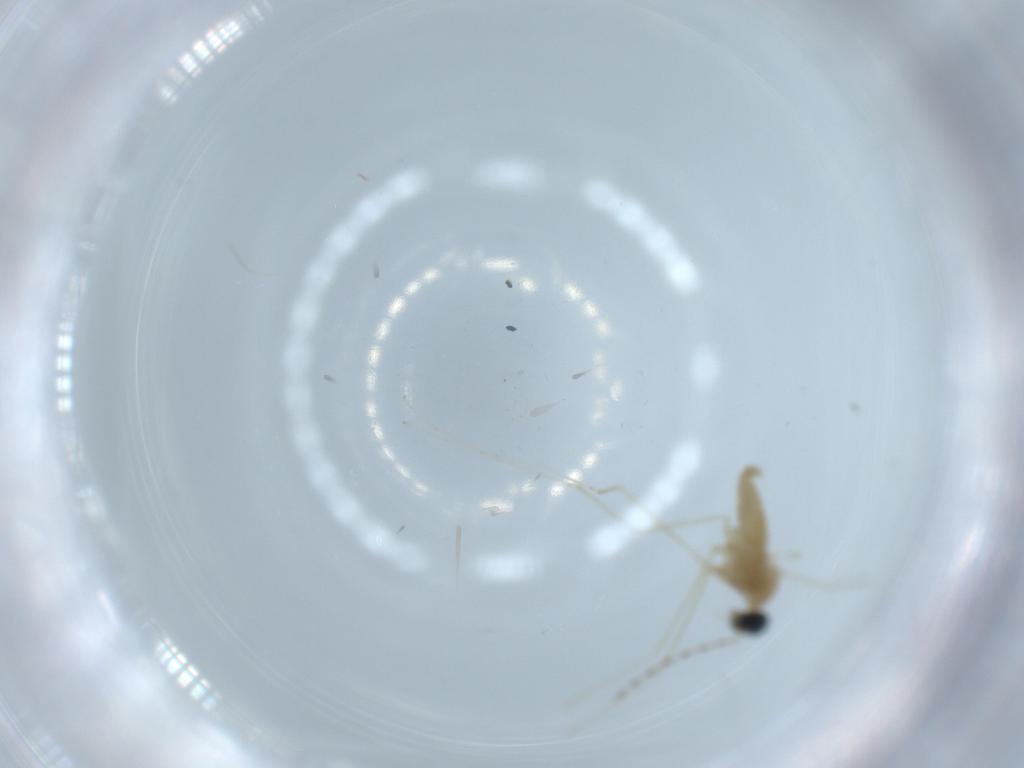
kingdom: Animalia
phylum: Arthropoda
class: Insecta
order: Diptera
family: Cecidomyiidae
